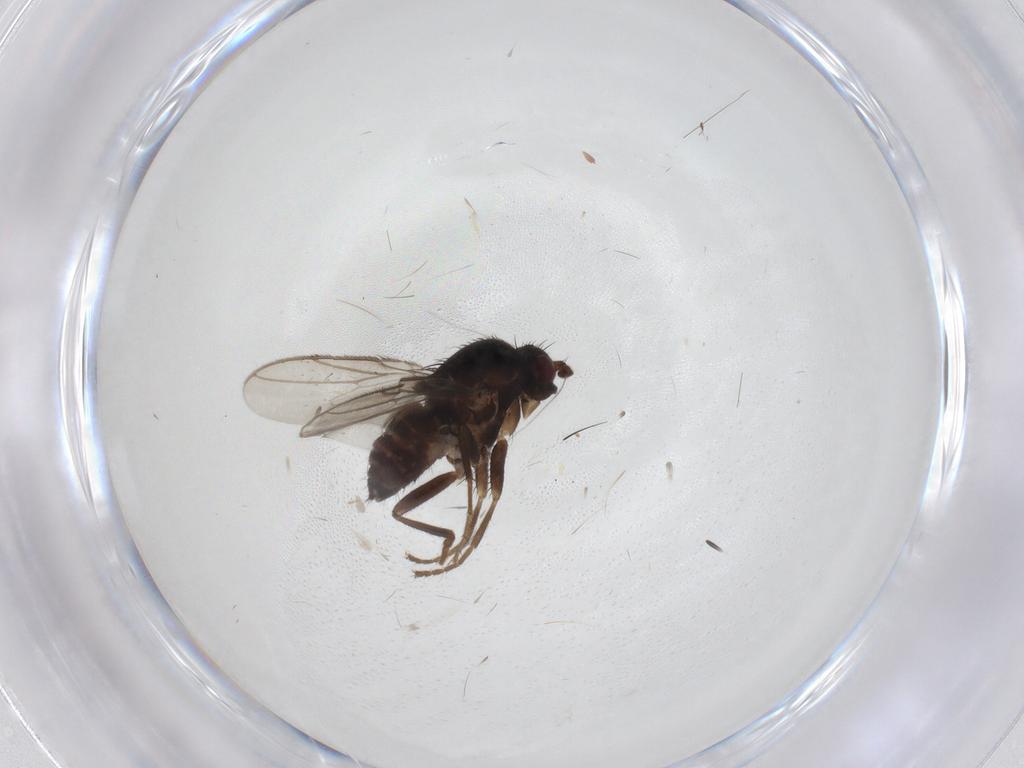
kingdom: Animalia
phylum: Arthropoda
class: Insecta
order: Diptera
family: Sphaeroceridae
